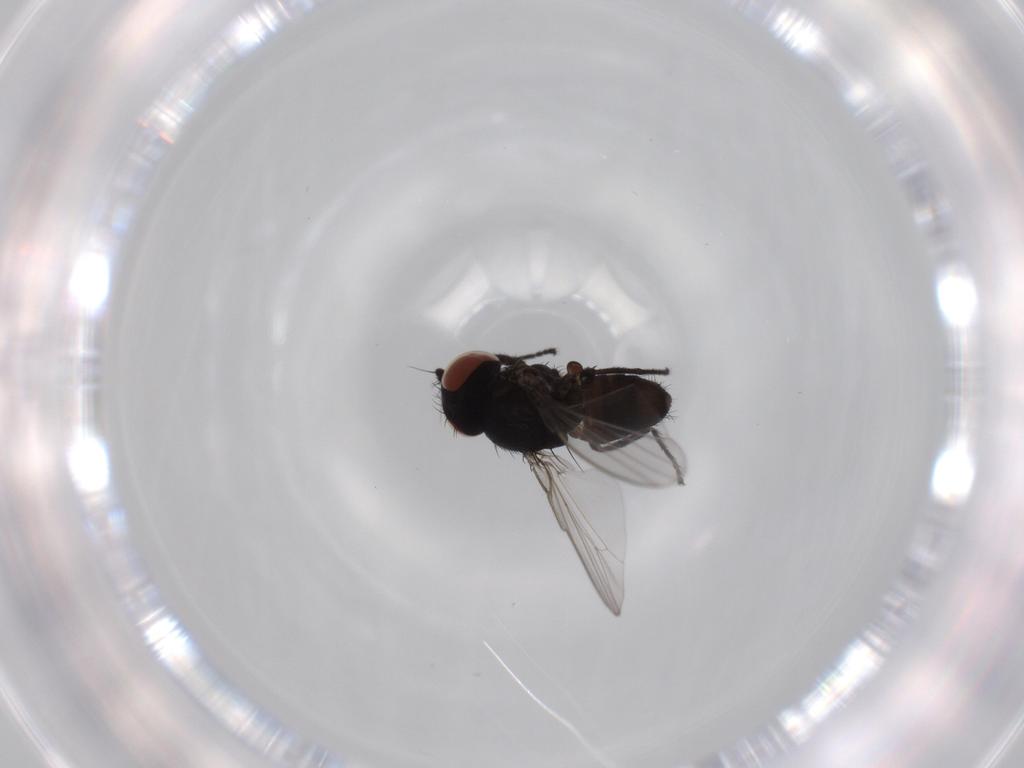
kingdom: Animalia
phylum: Arthropoda
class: Insecta
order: Diptera
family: Milichiidae
